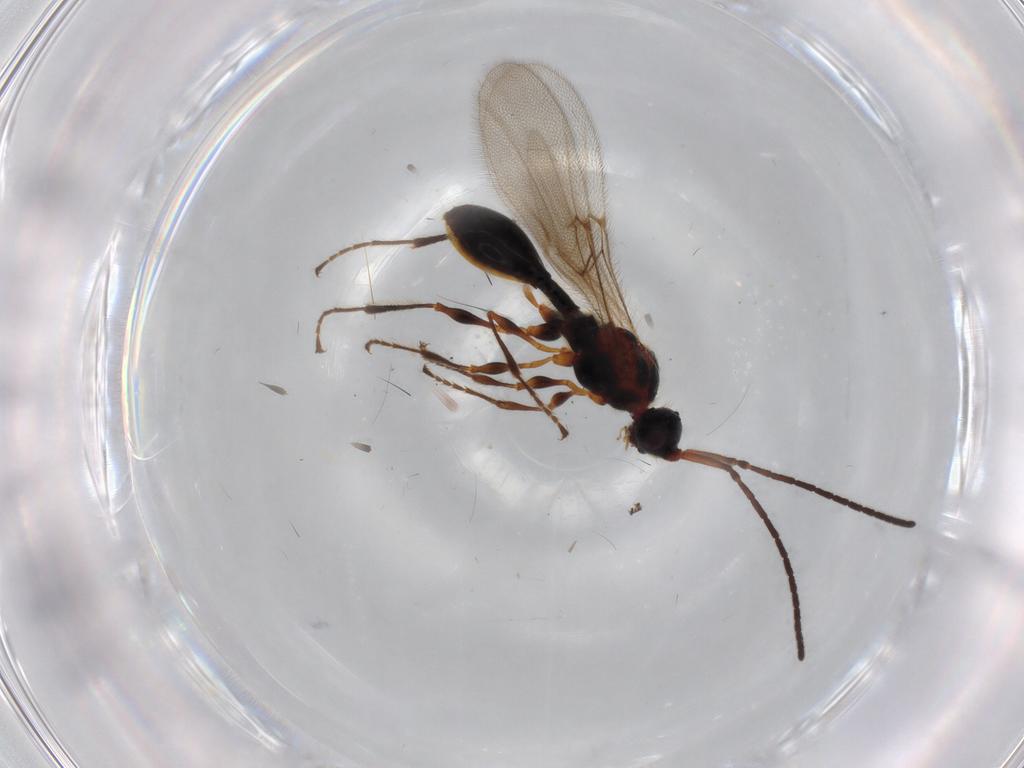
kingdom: Animalia
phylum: Arthropoda
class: Insecta
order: Hymenoptera
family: Diapriidae
